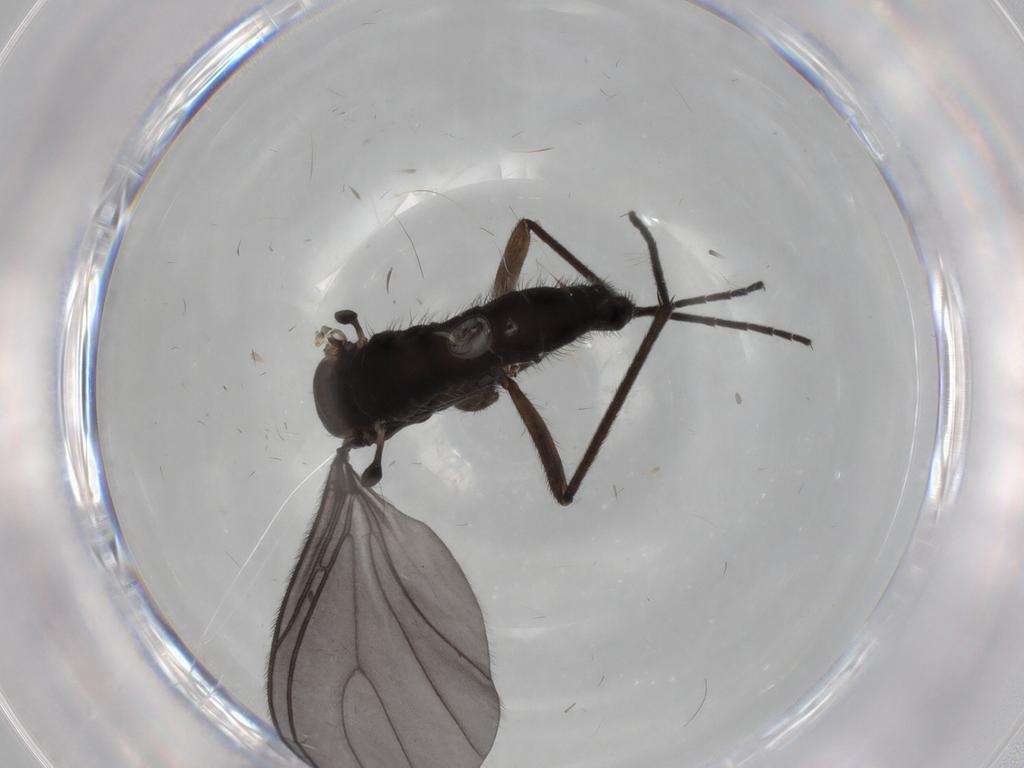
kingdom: Animalia
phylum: Arthropoda
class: Insecta
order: Diptera
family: Sciaridae
